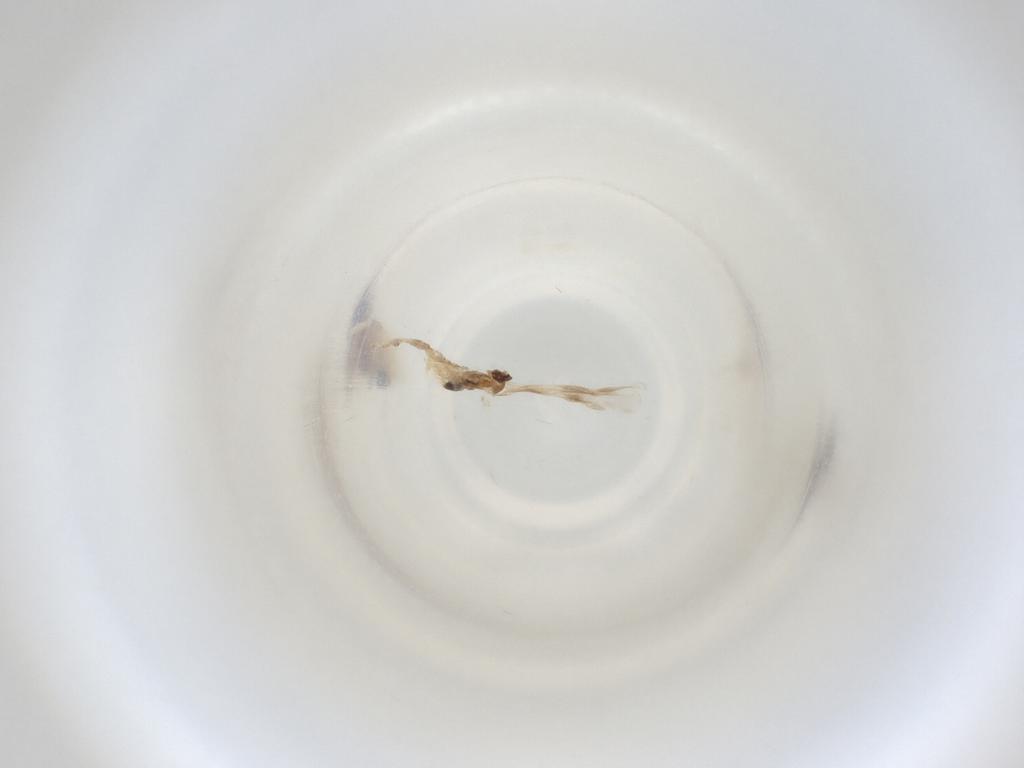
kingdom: Animalia
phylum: Arthropoda
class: Insecta
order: Diptera
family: Cecidomyiidae
